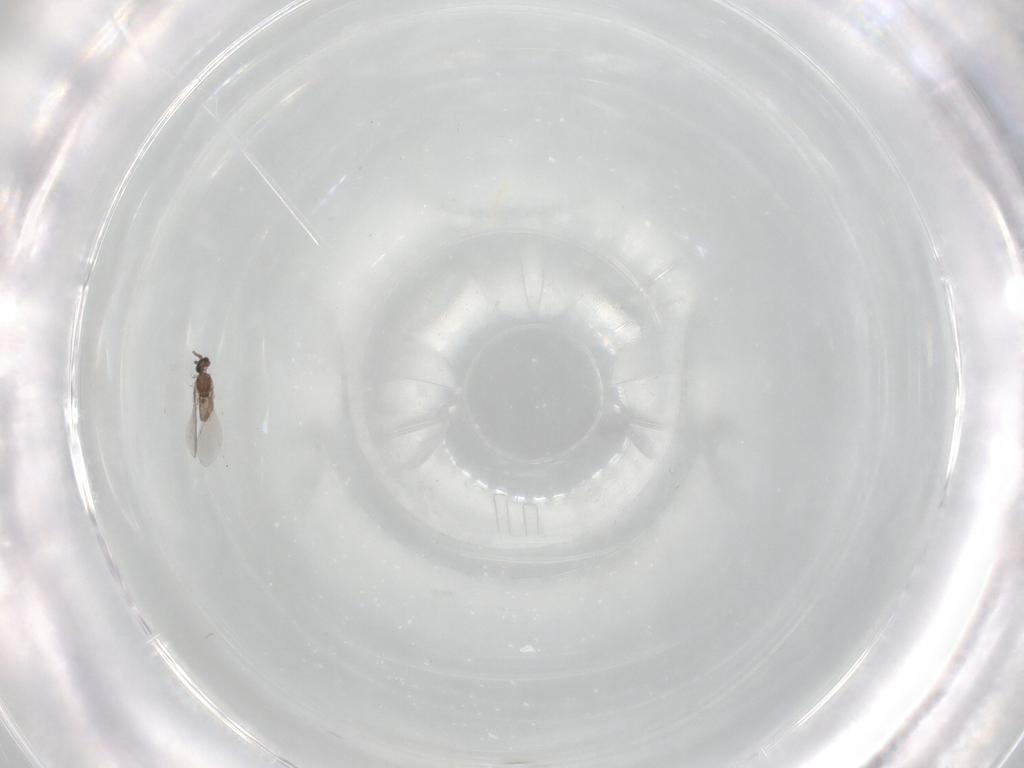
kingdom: Animalia
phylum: Arthropoda
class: Insecta
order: Diptera
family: Cecidomyiidae
